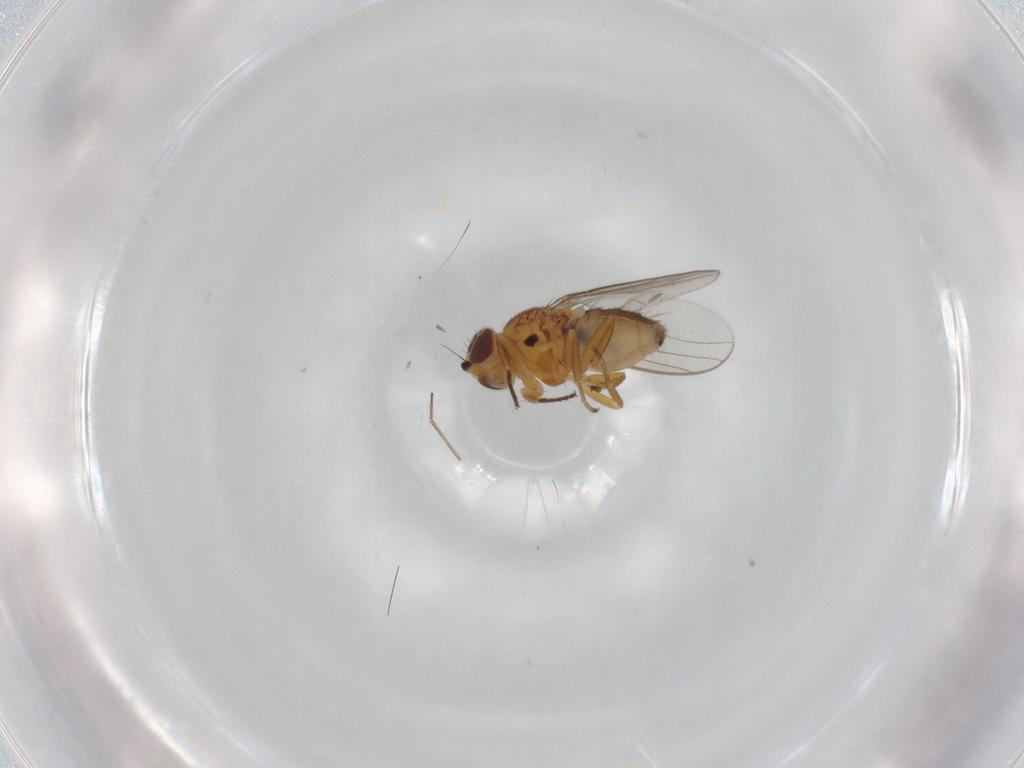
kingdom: Animalia
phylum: Arthropoda
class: Insecta
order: Diptera
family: Chloropidae
